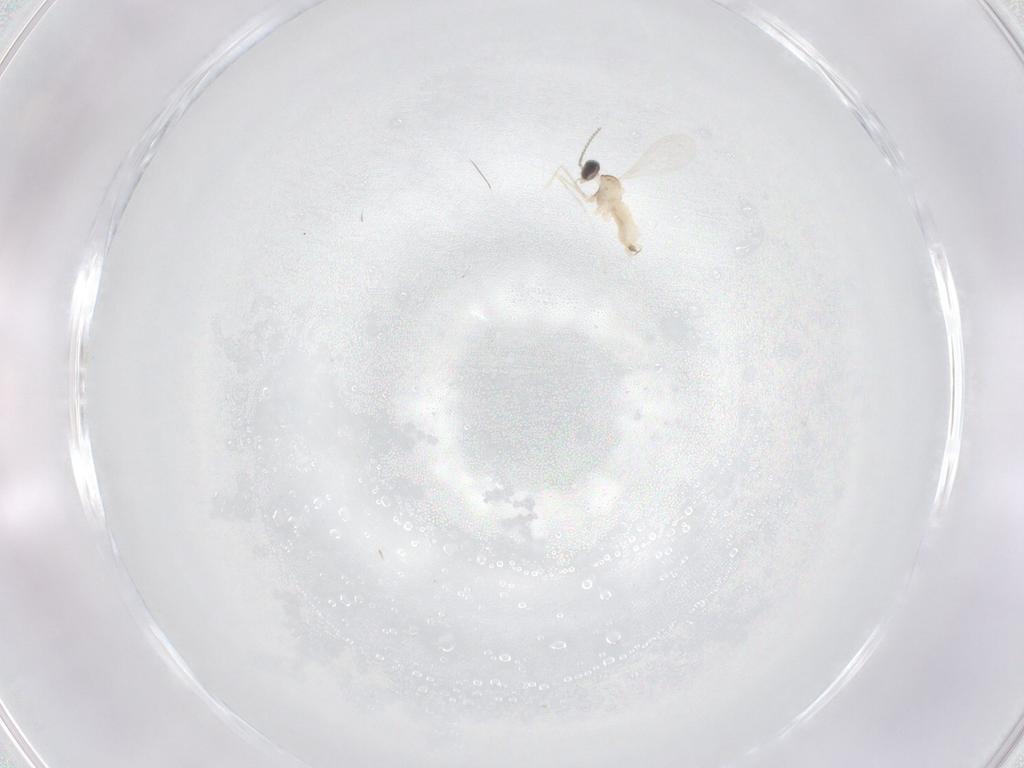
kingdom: Animalia
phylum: Arthropoda
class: Insecta
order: Diptera
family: Cecidomyiidae
